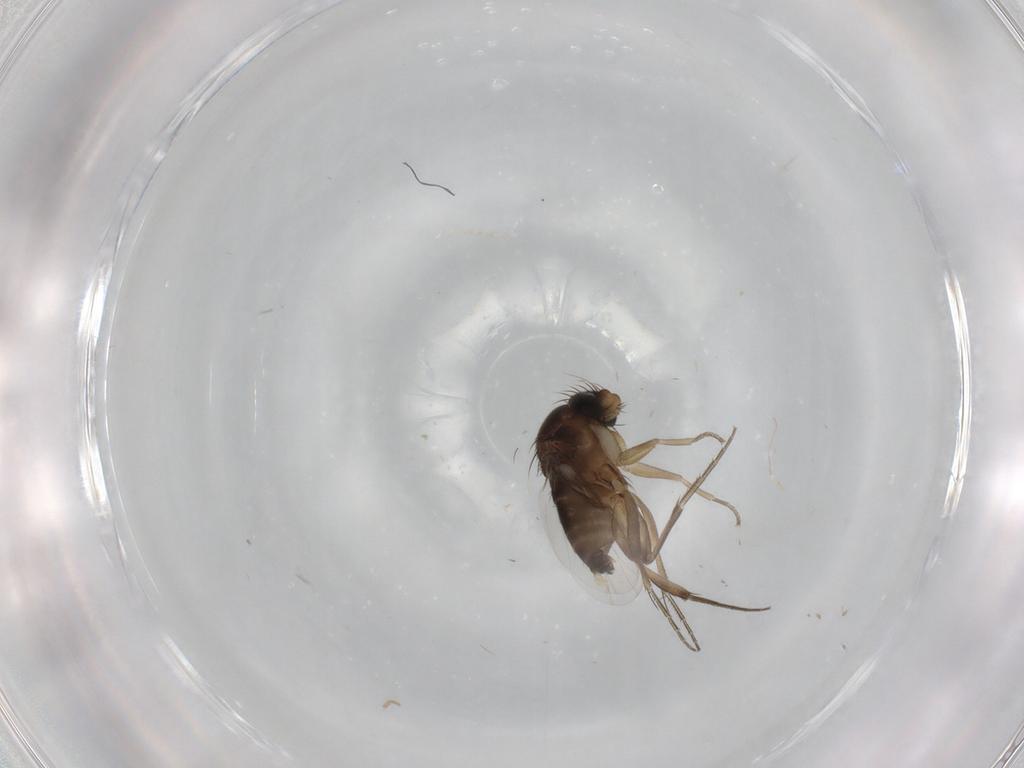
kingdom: Animalia
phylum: Arthropoda
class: Insecta
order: Diptera
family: Phoridae
